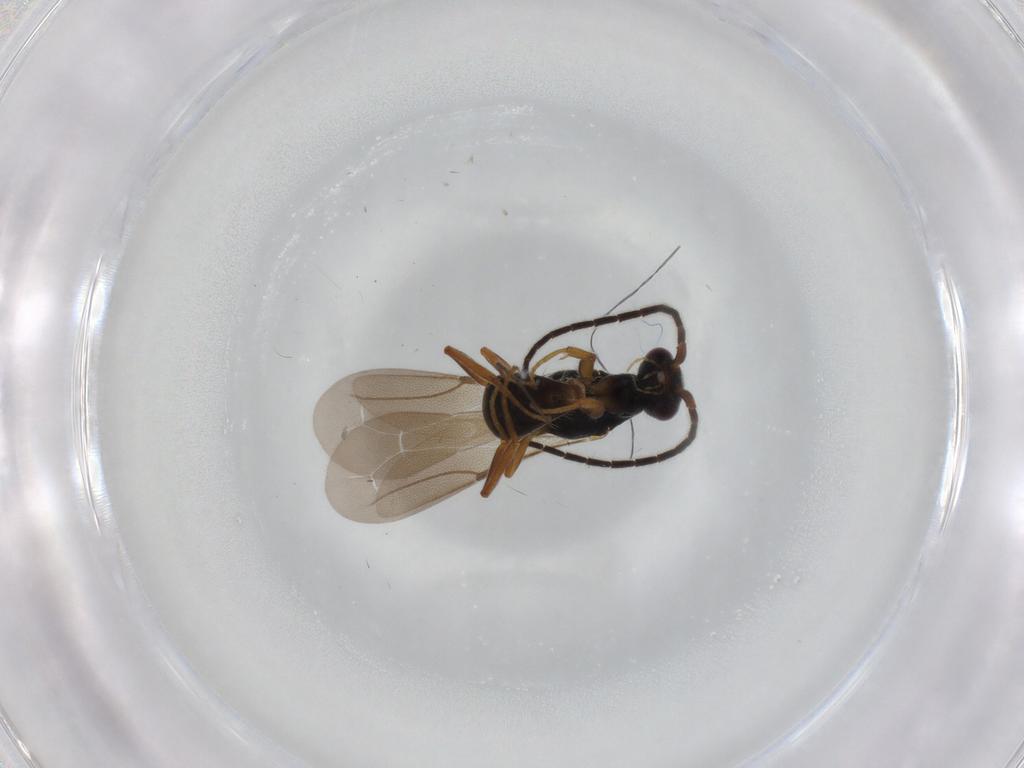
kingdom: Animalia
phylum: Arthropoda
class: Insecta
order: Hymenoptera
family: Bethylidae
